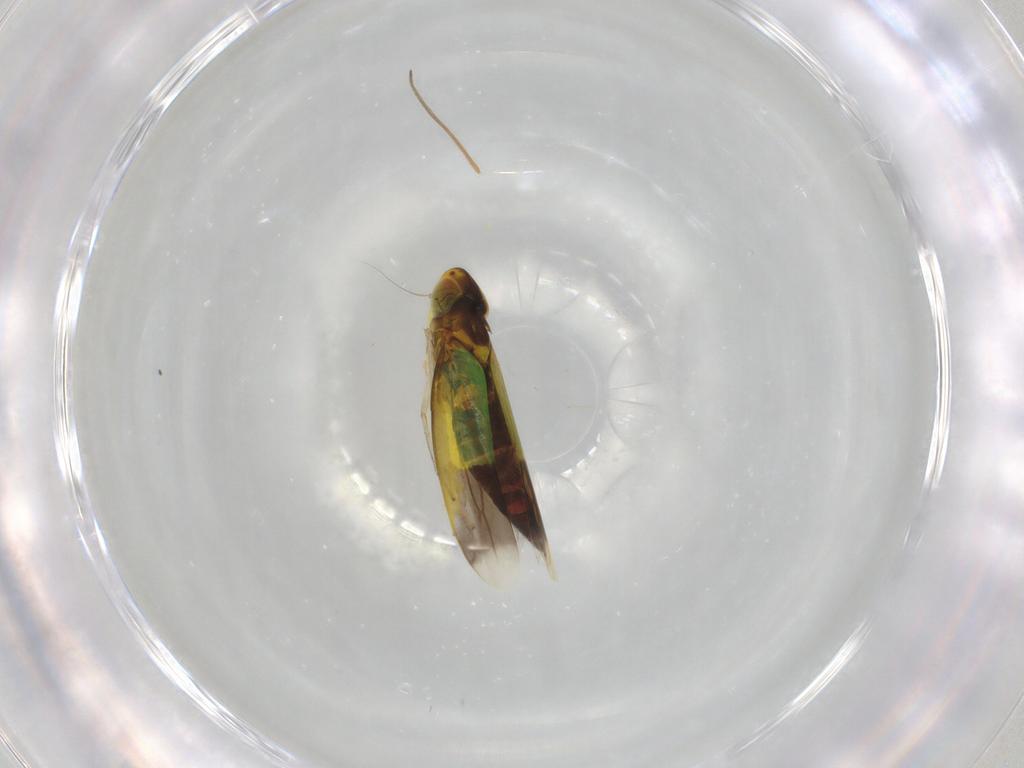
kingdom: Animalia
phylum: Arthropoda
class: Insecta
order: Hemiptera
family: Cicadellidae
